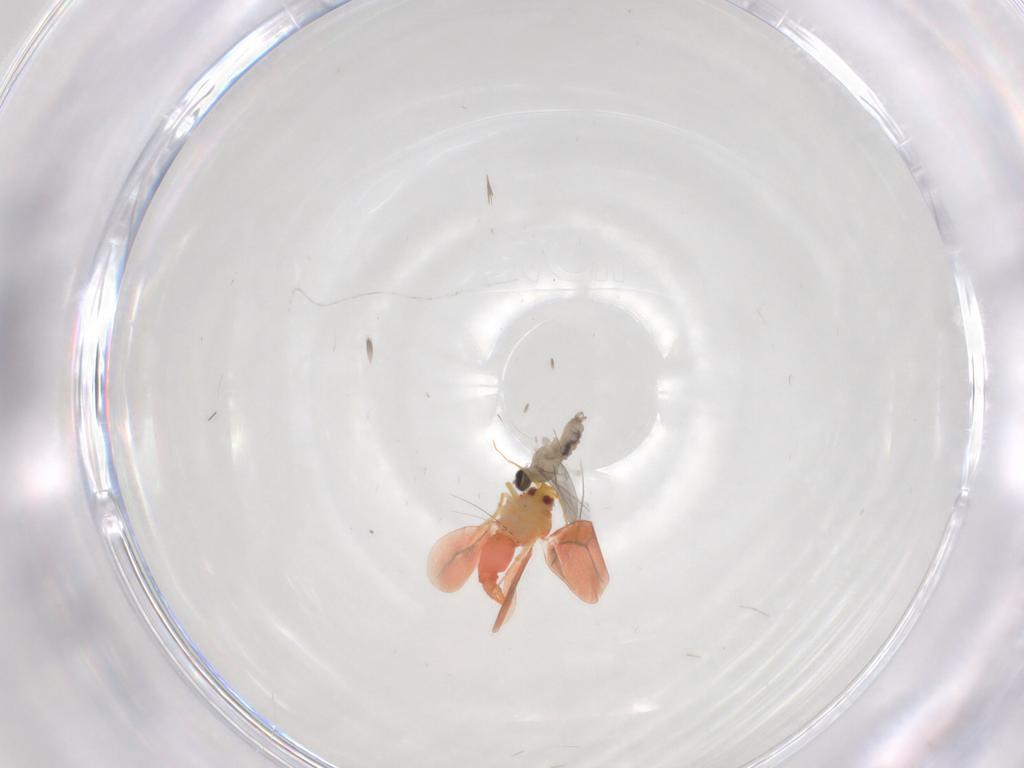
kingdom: Animalia
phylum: Arthropoda
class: Insecta
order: Diptera
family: Cecidomyiidae
